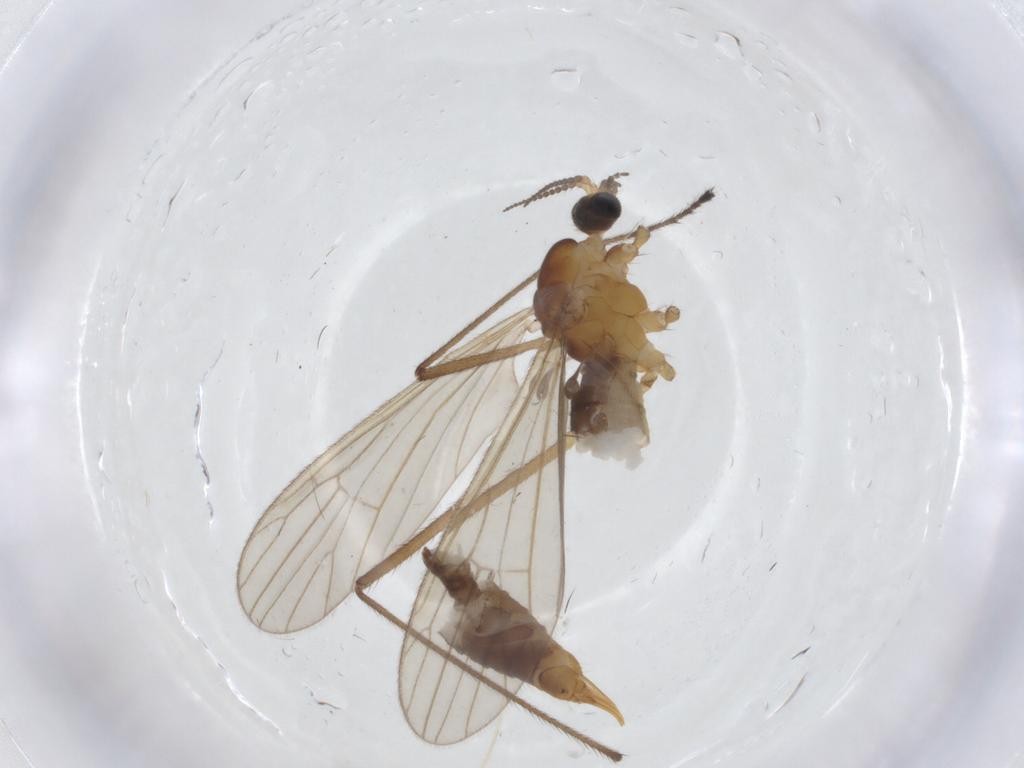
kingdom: Animalia
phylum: Arthropoda
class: Insecta
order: Diptera
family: Limoniidae
